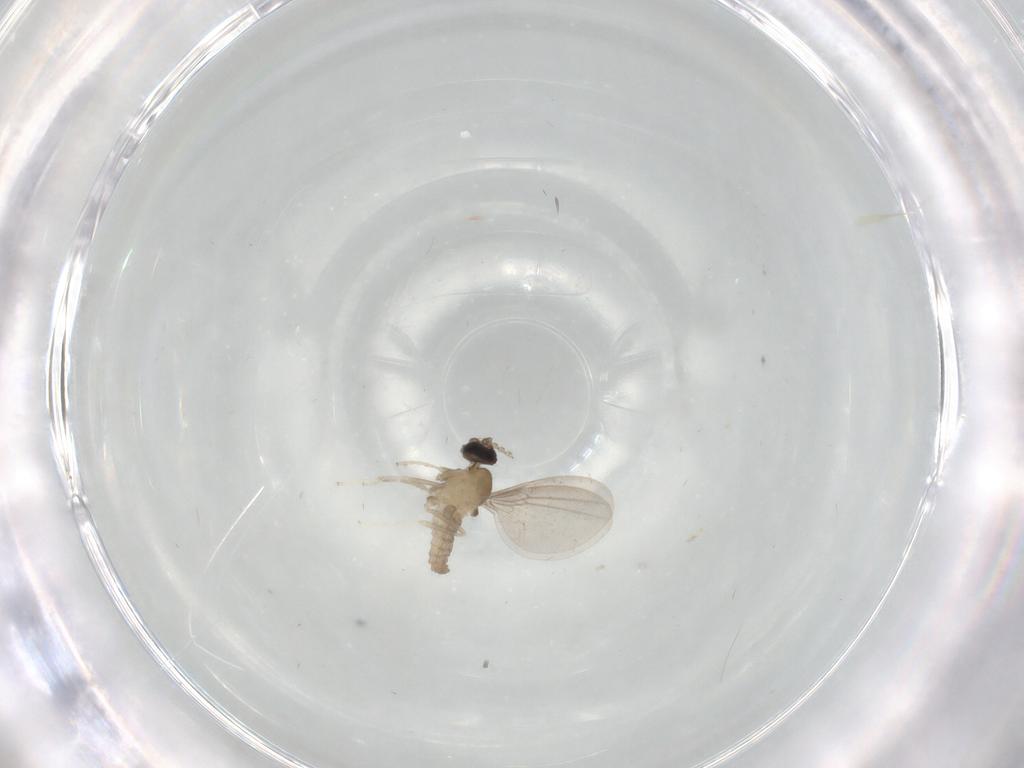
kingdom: Animalia
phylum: Arthropoda
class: Insecta
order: Diptera
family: Cecidomyiidae
